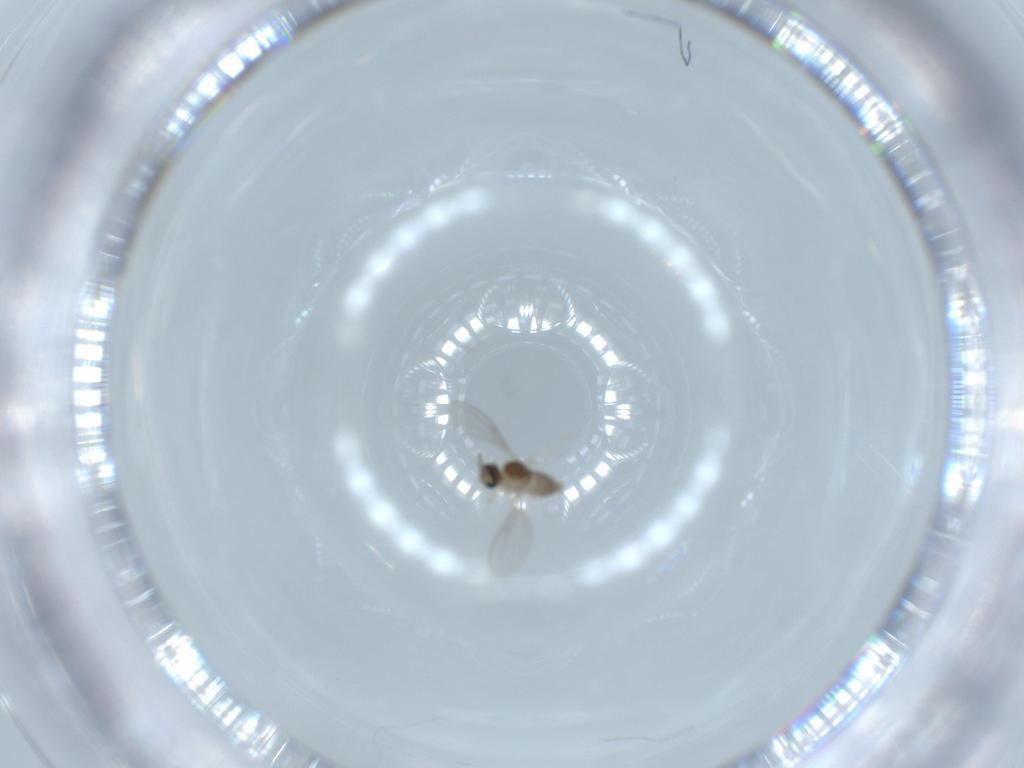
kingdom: Animalia
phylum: Arthropoda
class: Insecta
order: Diptera
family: Cecidomyiidae
